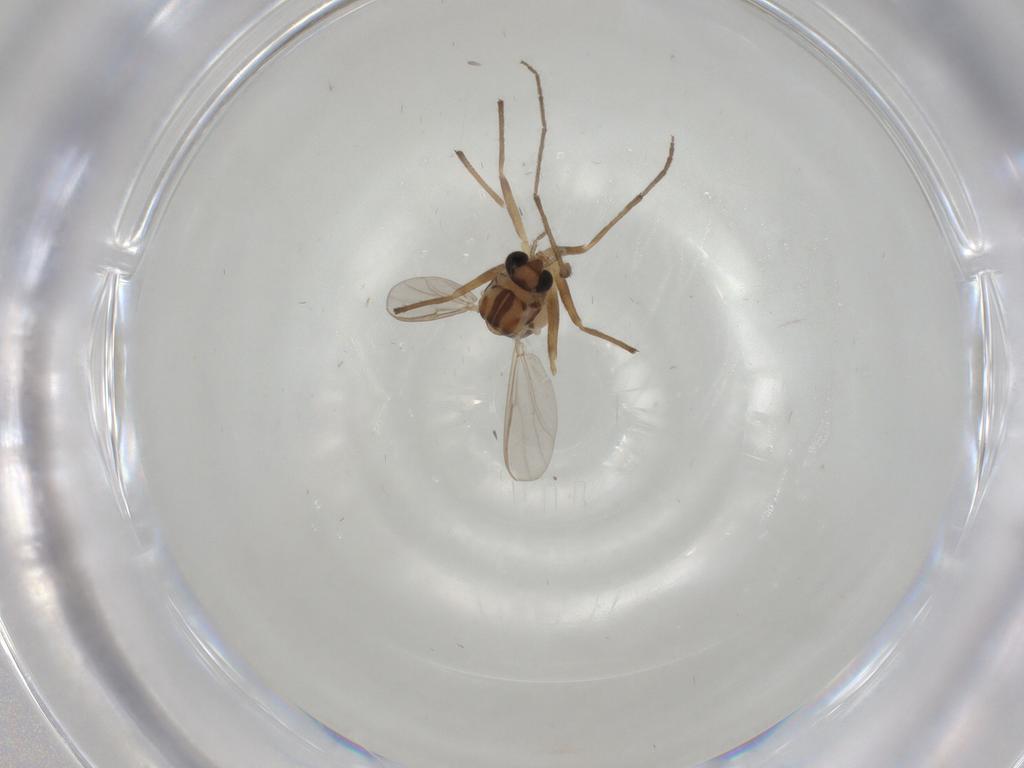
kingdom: Animalia
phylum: Arthropoda
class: Insecta
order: Diptera
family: Chironomidae
